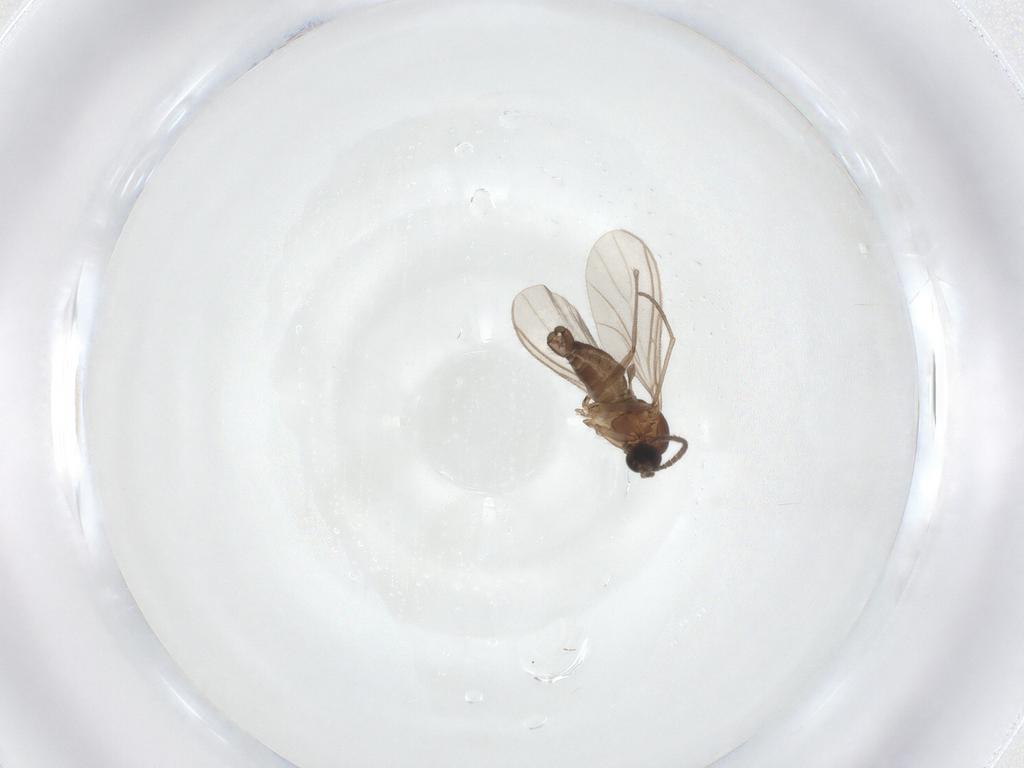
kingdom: Animalia
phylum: Arthropoda
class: Insecta
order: Diptera
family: Sciaridae
